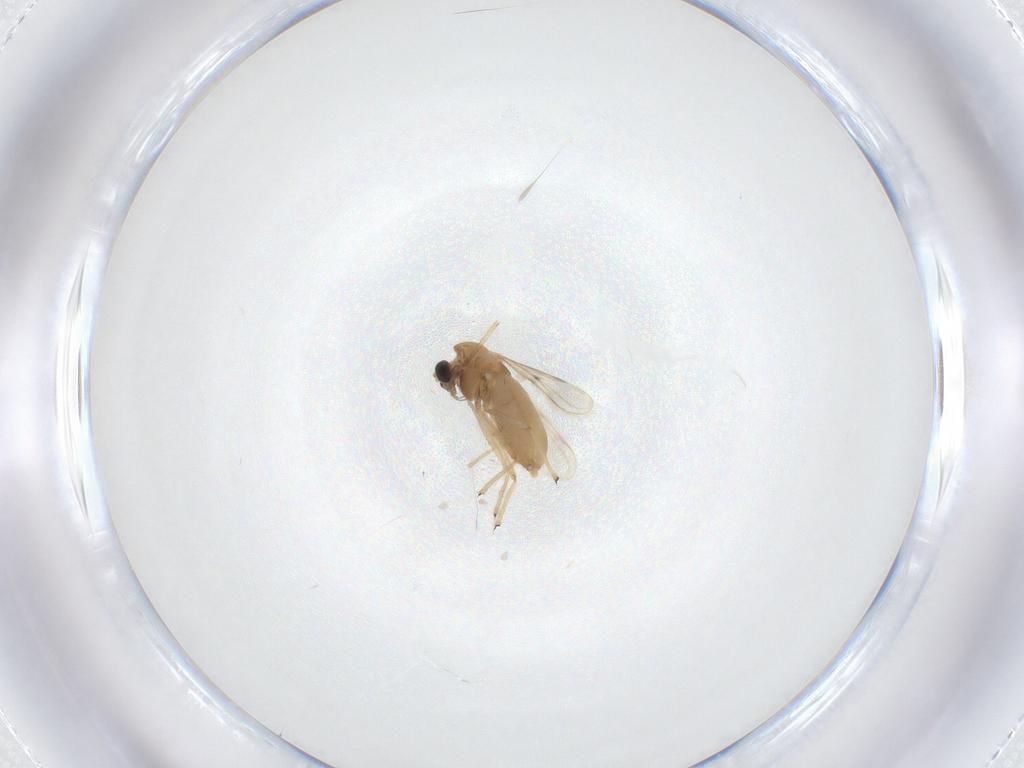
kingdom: Animalia
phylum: Arthropoda
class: Insecta
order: Diptera
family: Chironomidae
